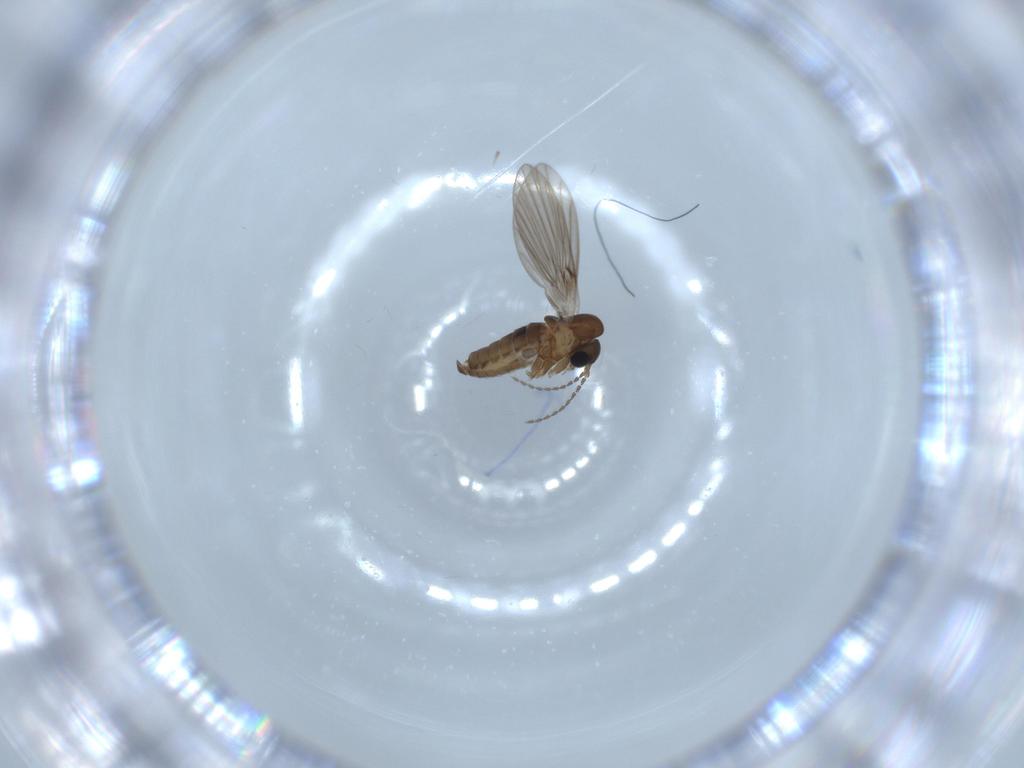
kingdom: Animalia
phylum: Arthropoda
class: Insecta
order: Diptera
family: Psychodidae
